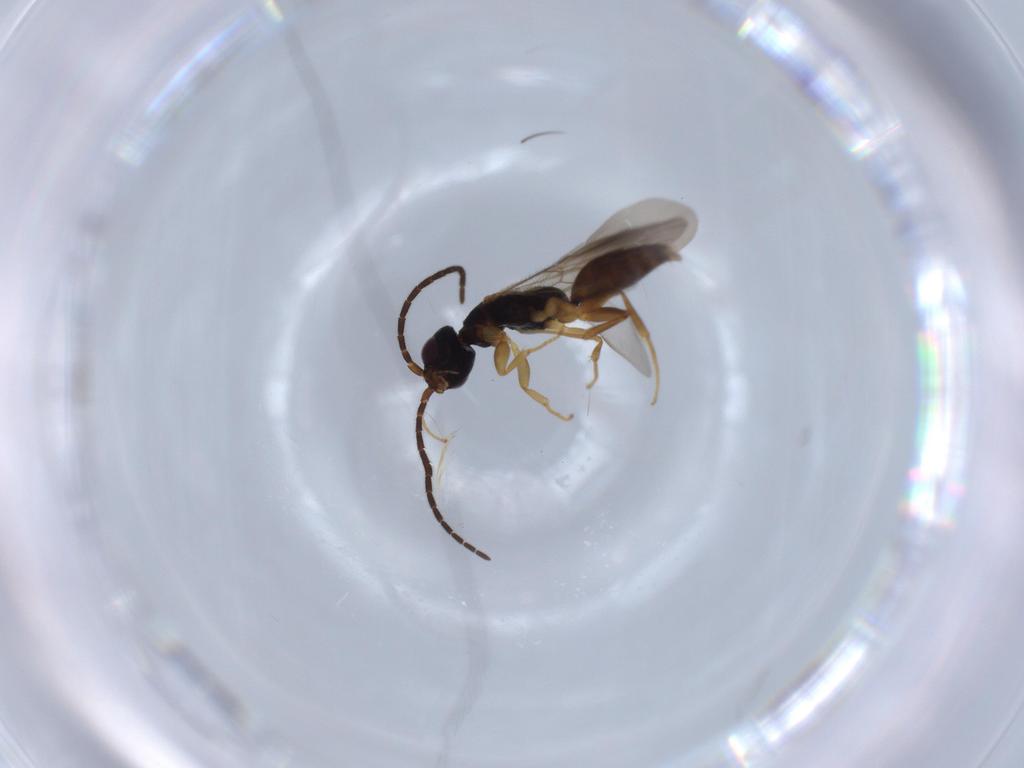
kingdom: Animalia
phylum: Arthropoda
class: Insecta
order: Hymenoptera
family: Bethylidae
